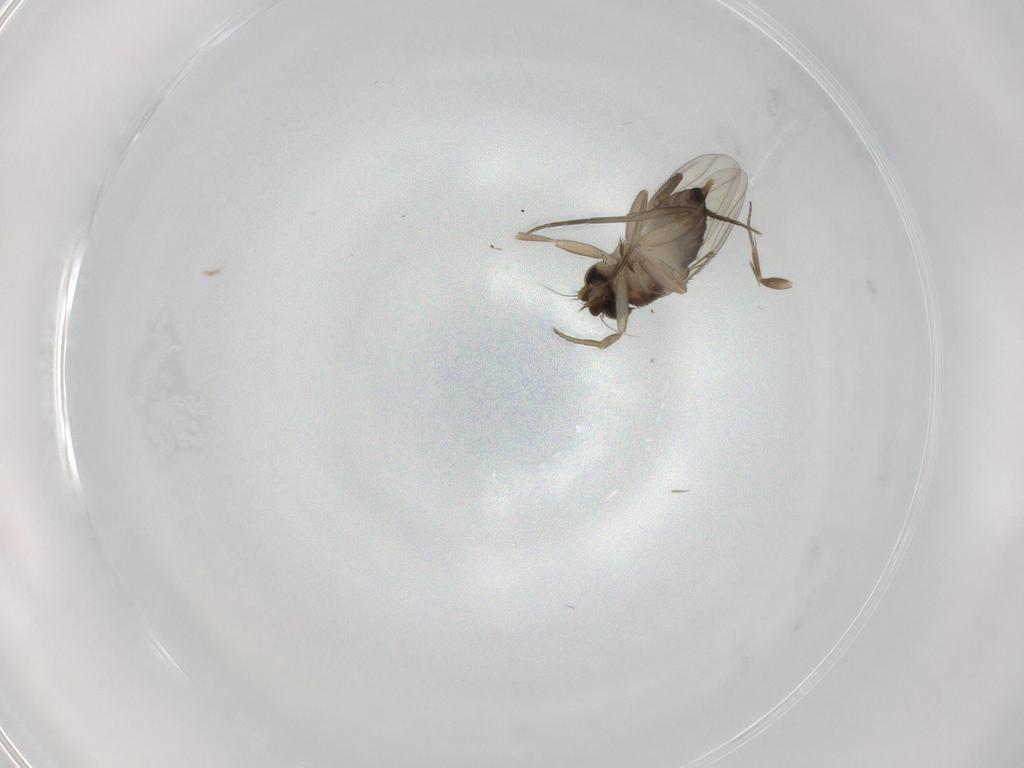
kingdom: Animalia
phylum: Arthropoda
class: Insecta
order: Diptera
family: Phoridae
